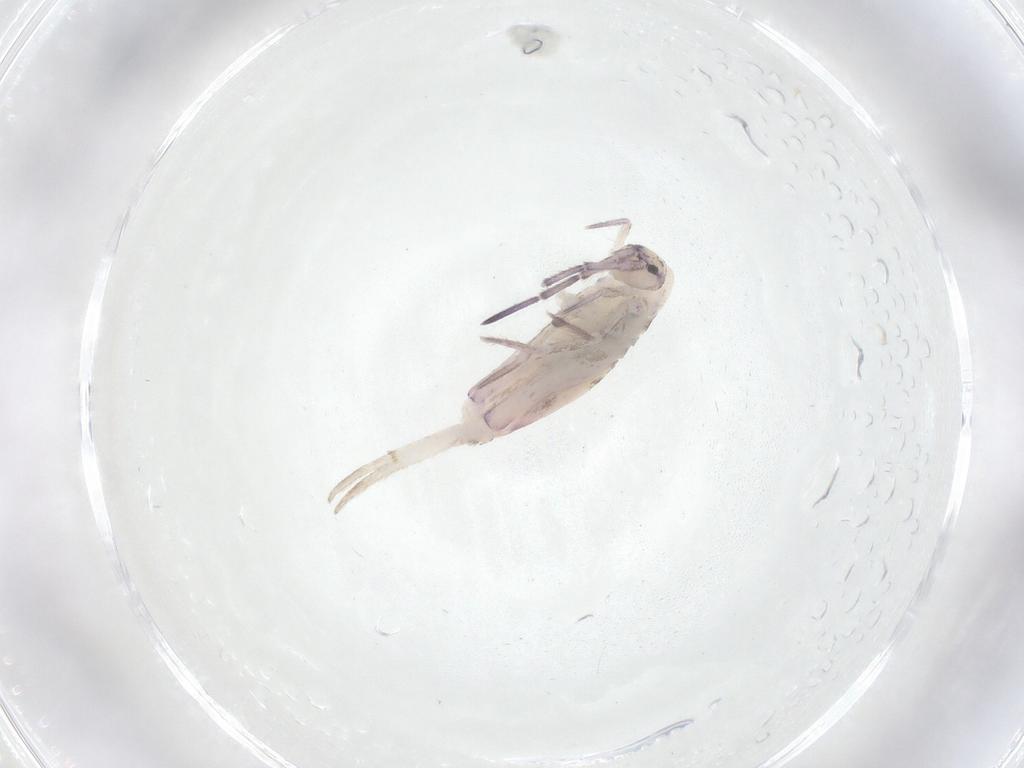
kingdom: Animalia
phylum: Arthropoda
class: Collembola
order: Entomobryomorpha
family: Entomobryidae
